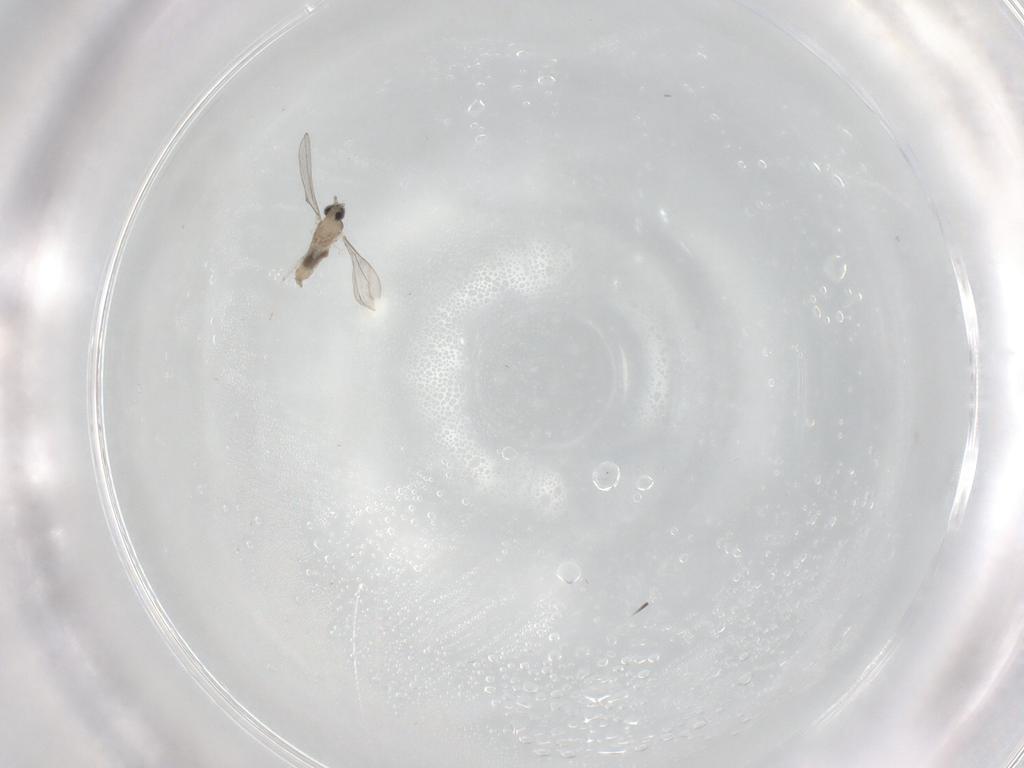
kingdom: Animalia
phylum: Arthropoda
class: Insecta
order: Diptera
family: Cecidomyiidae
